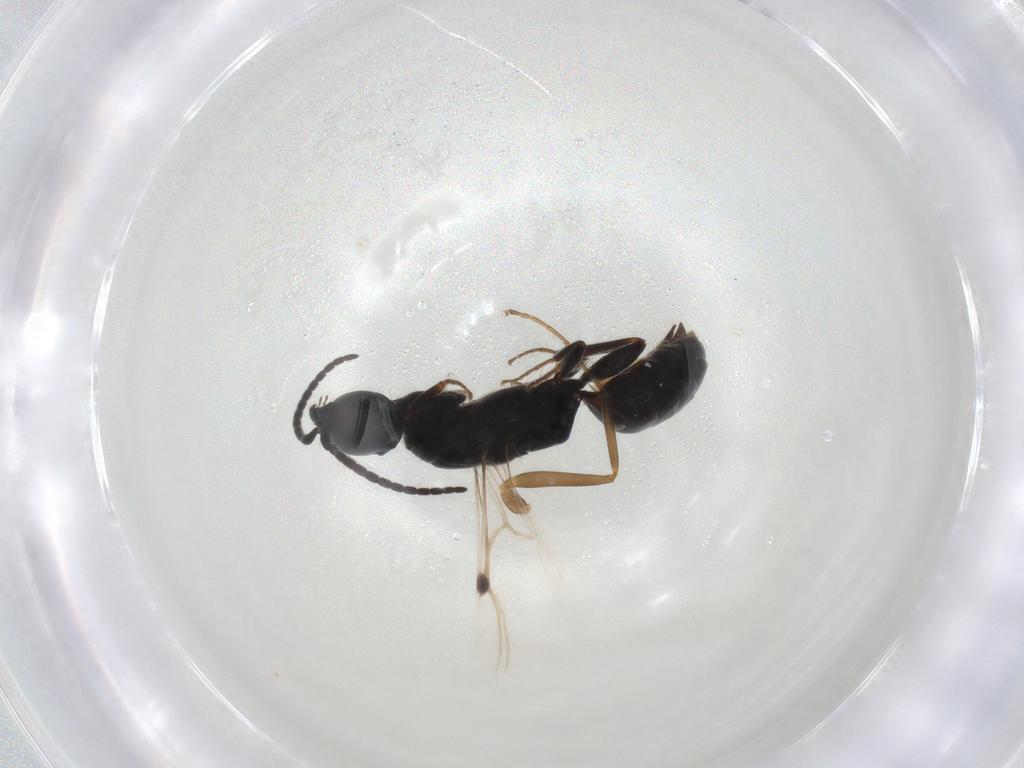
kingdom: Animalia
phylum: Arthropoda
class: Insecta
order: Hymenoptera
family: Bethylidae
